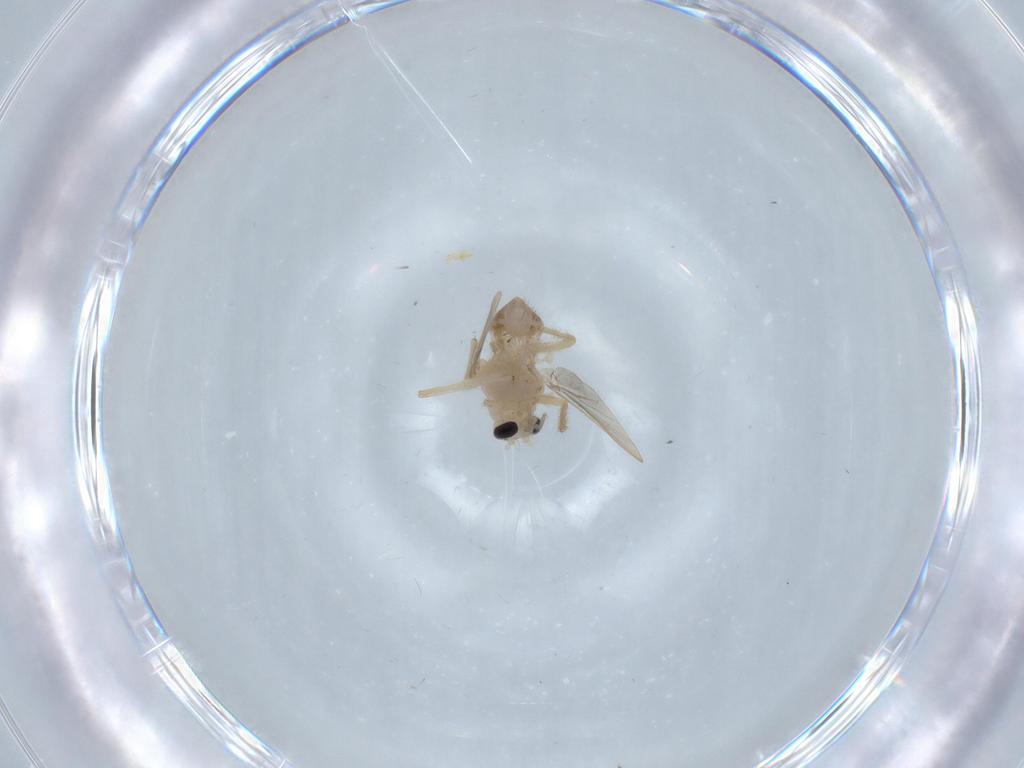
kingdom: Animalia
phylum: Arthropoda
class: Insecta
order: Diptera
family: Chironomidae
